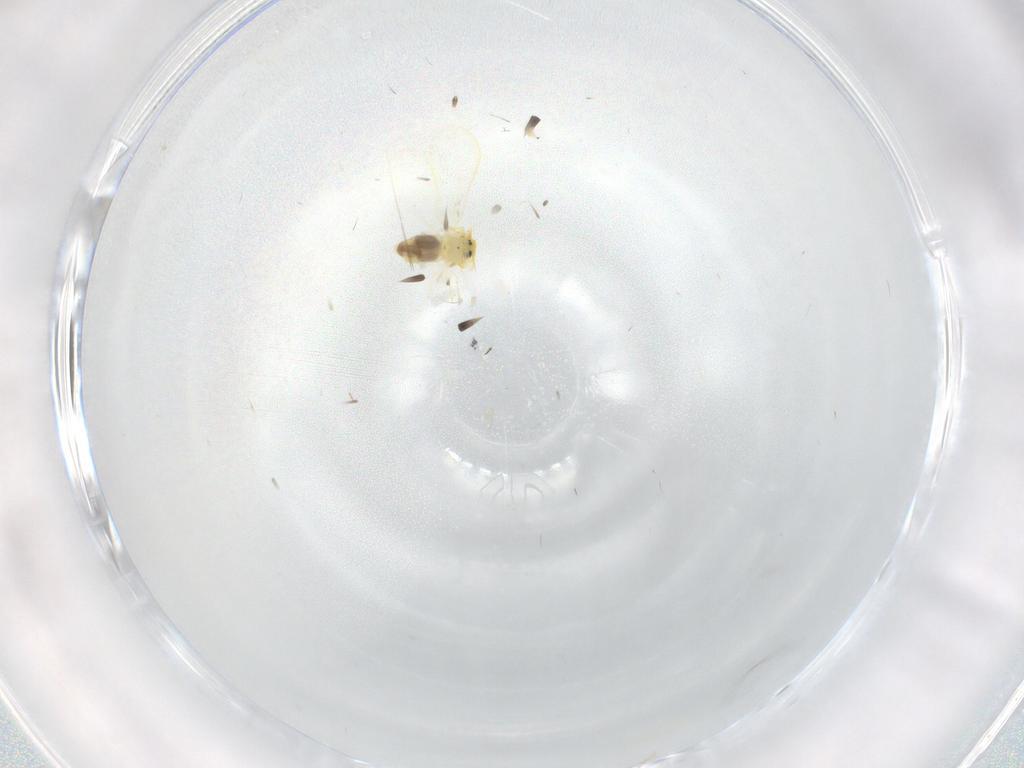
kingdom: Animalia
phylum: Arthropoda
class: Insecta
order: Hemiptera
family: Aleyrodidae
